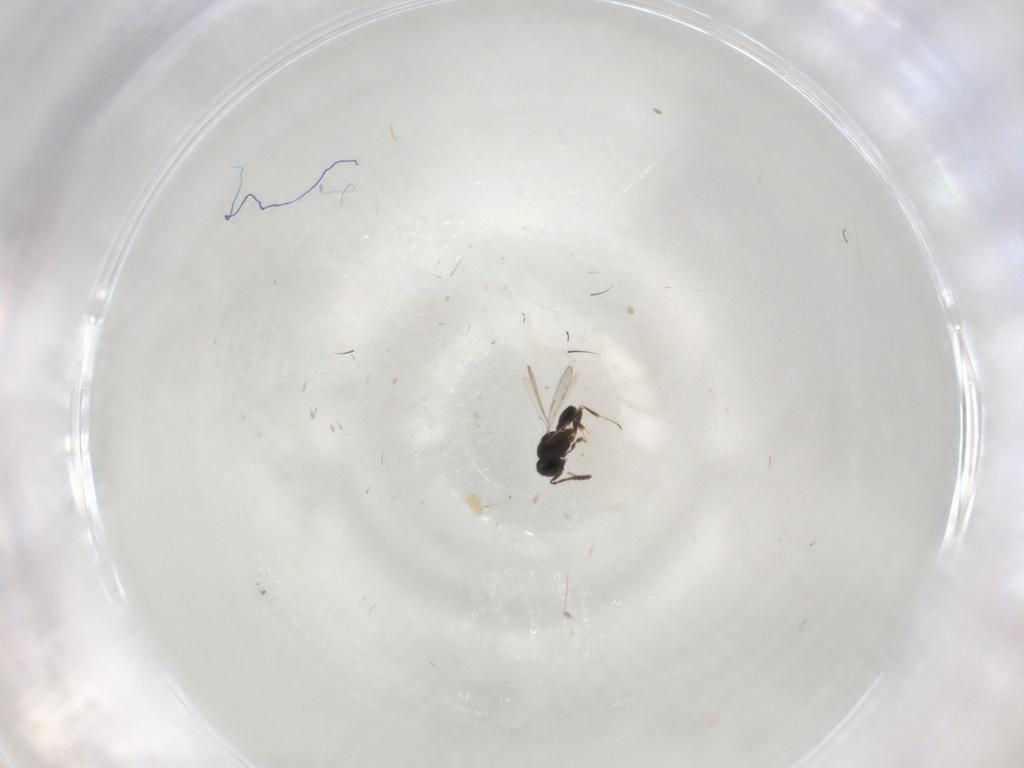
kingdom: Animalia
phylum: Arthropoda
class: Insecta
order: Hymenoptera
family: Scelionidae
